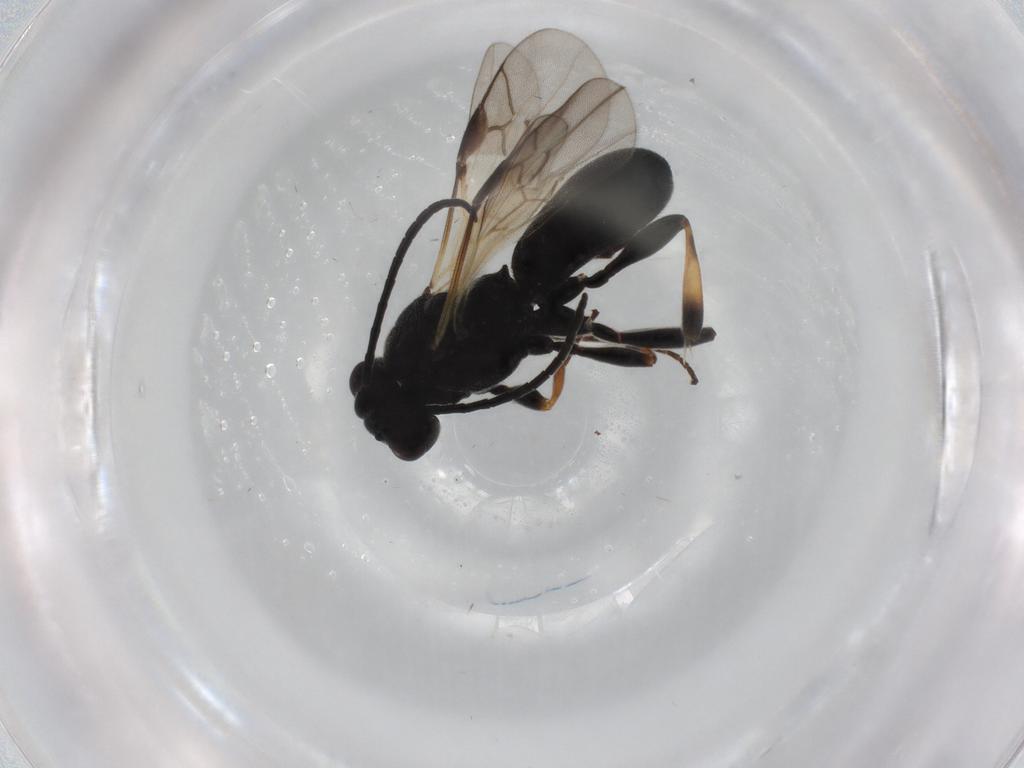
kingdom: Animalia
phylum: Arthropoda
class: Insecta
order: Hymenoptera
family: Braconidae
